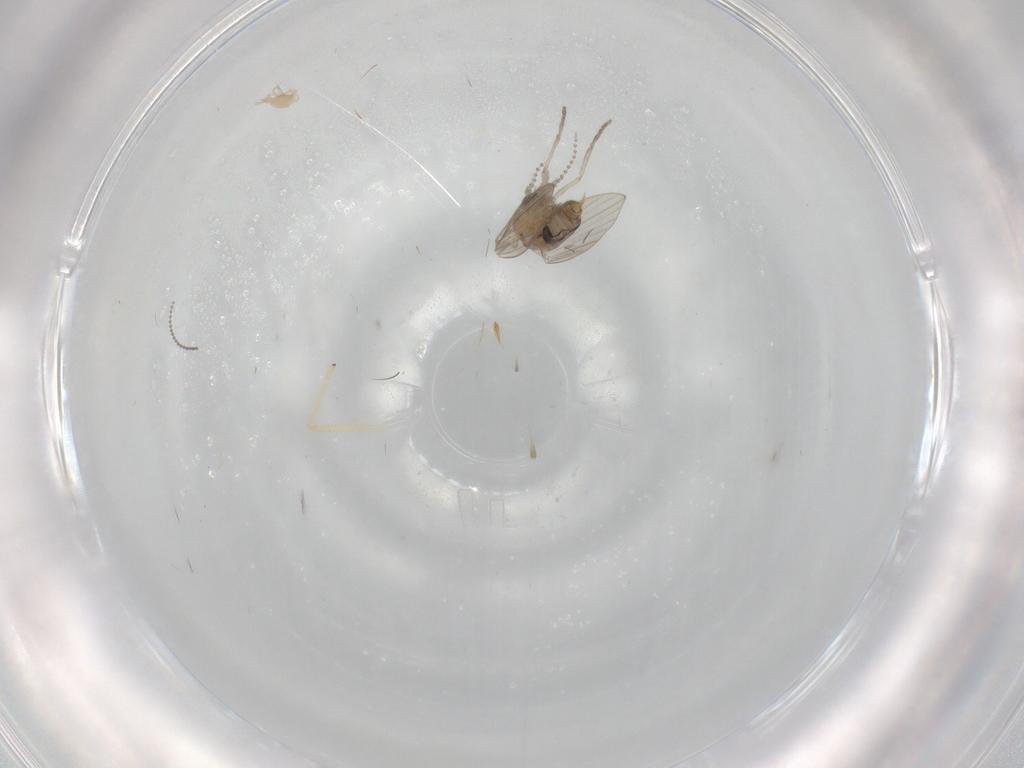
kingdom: Animalia
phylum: Arthropoda
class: Insecta
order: Diptera
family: Psychodidae
